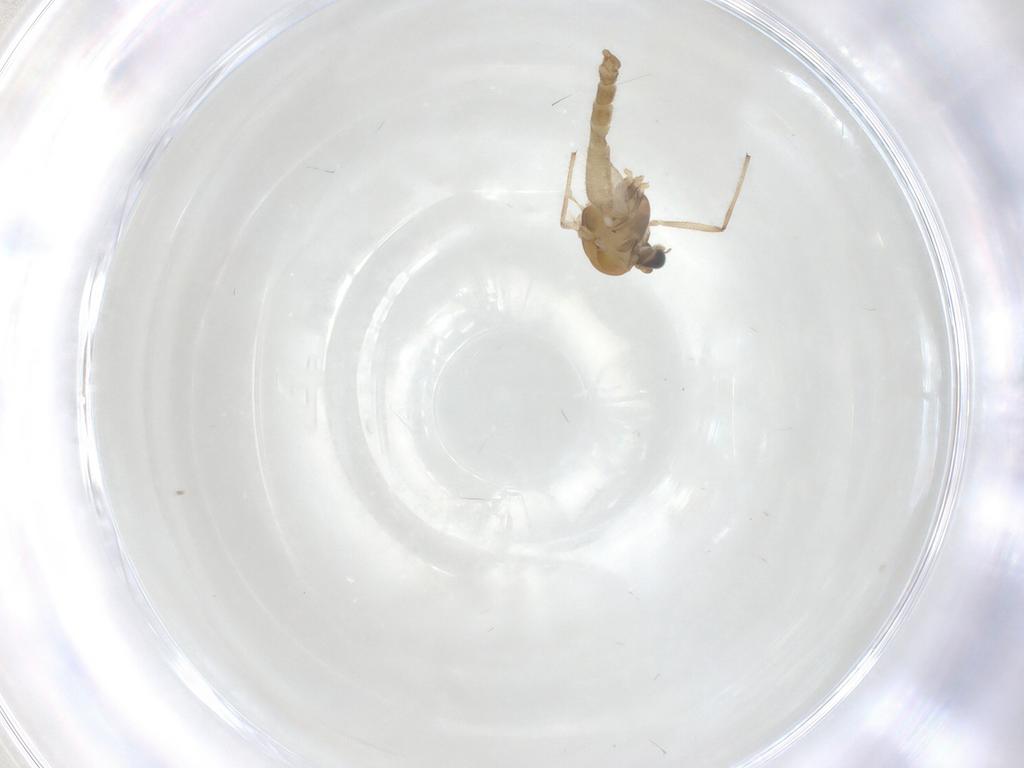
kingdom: Animalia
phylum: Arthropoda
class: Insecta
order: Diptera
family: Chironomidae
